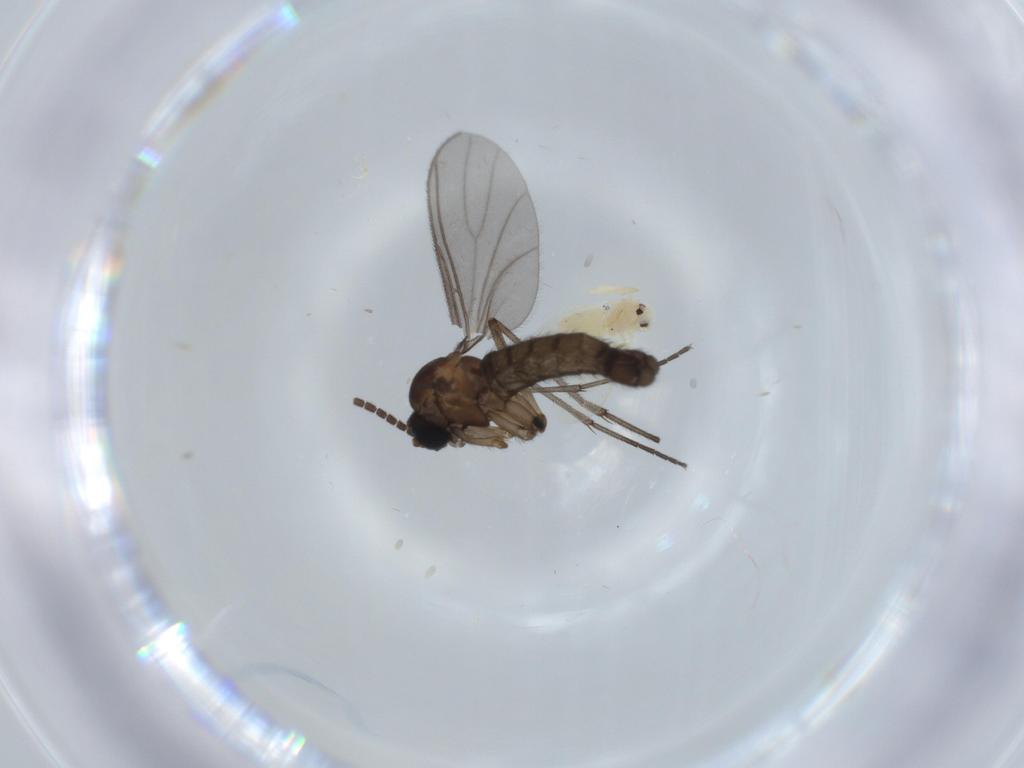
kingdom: Animalia
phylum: Arthropoda
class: Insecta
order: Diptera
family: Sciaridae
